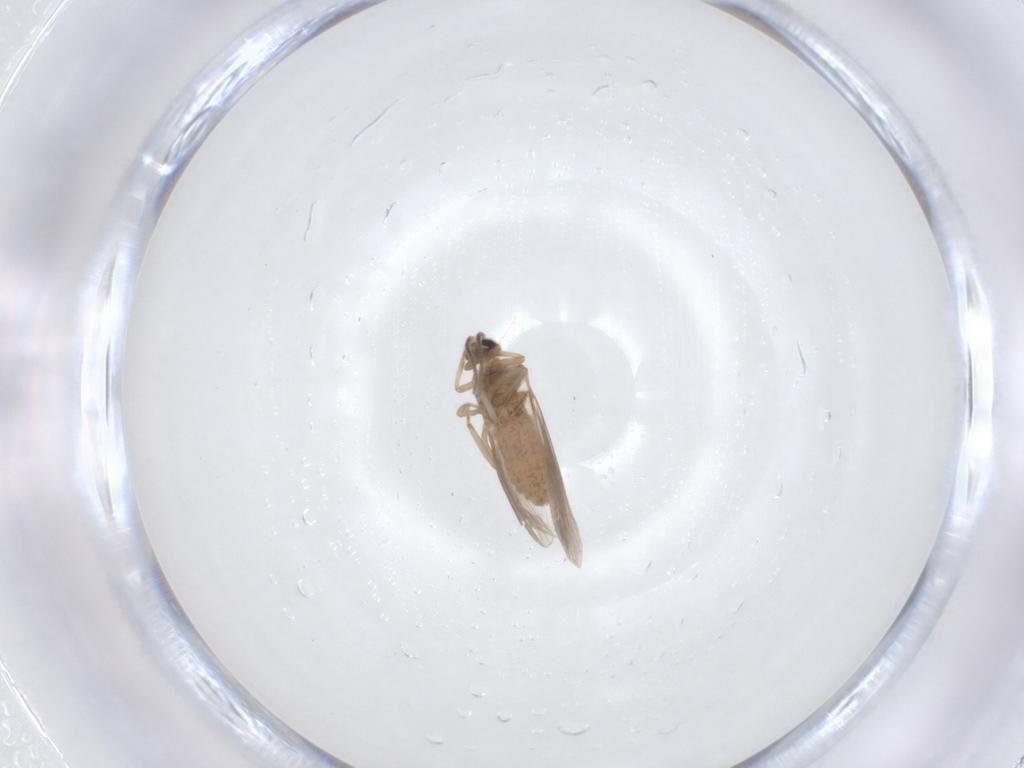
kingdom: Animalia
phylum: Arthropoda
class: Insecta
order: Neuroptera
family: Coniopterygidae
